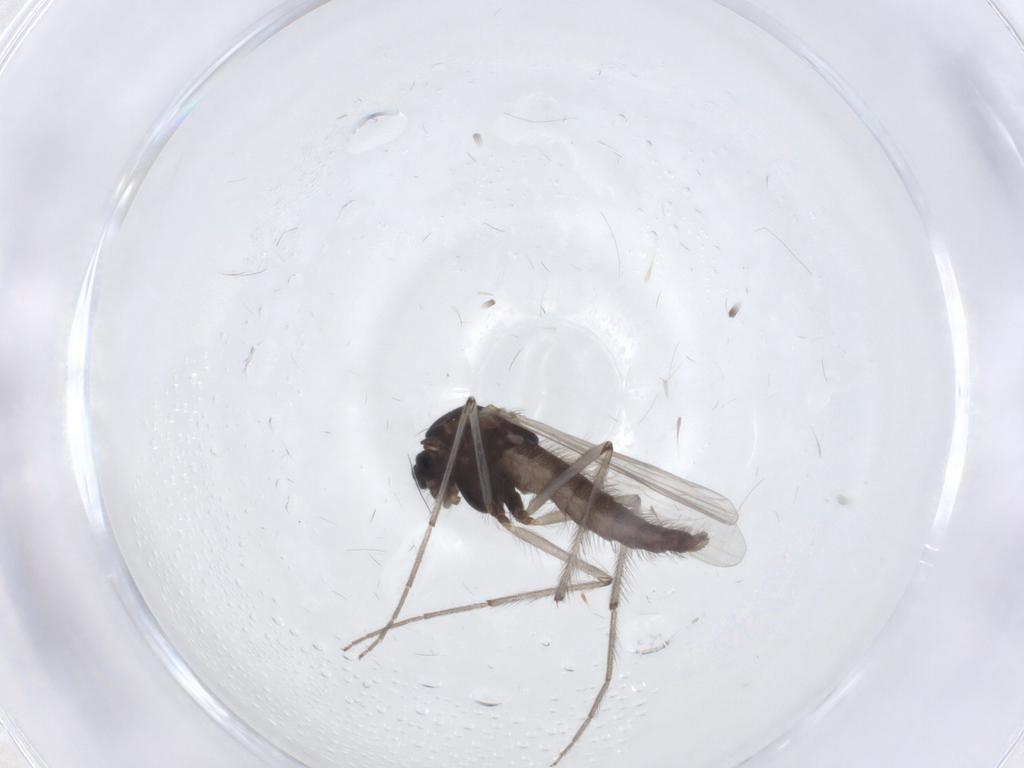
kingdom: Animalia
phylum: Arthropoda
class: Insecta
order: Diptera
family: Chironomidae
